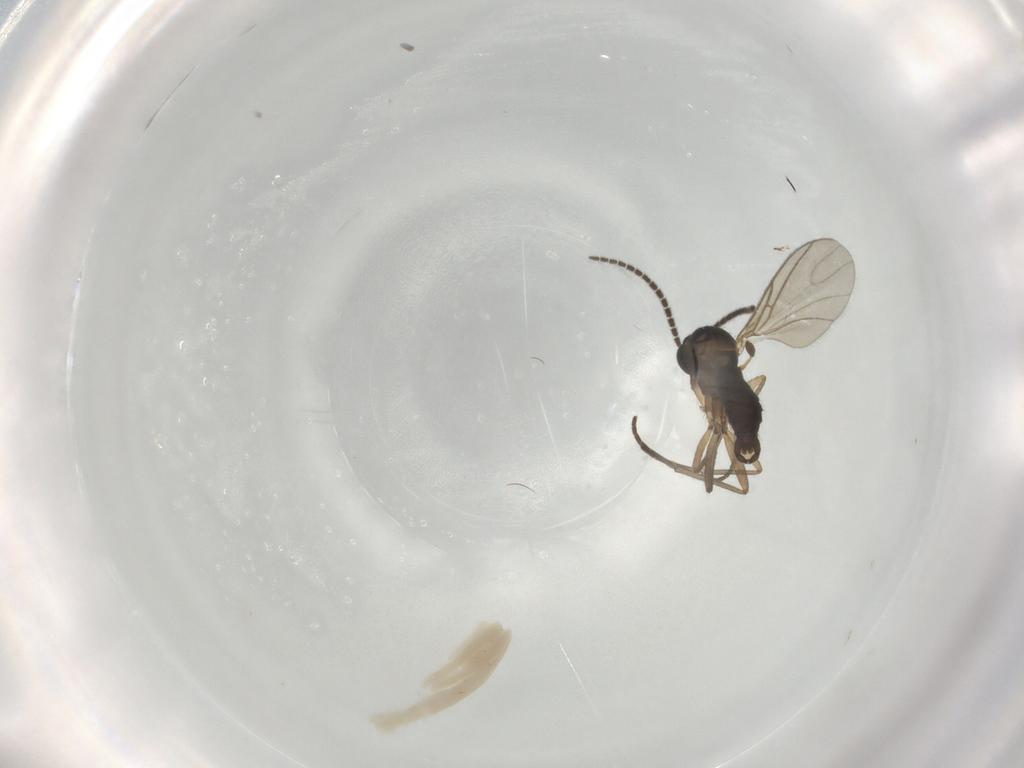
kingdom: Animalia
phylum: Arthropoda
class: Insecta
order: Diptera
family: Sciaridae
